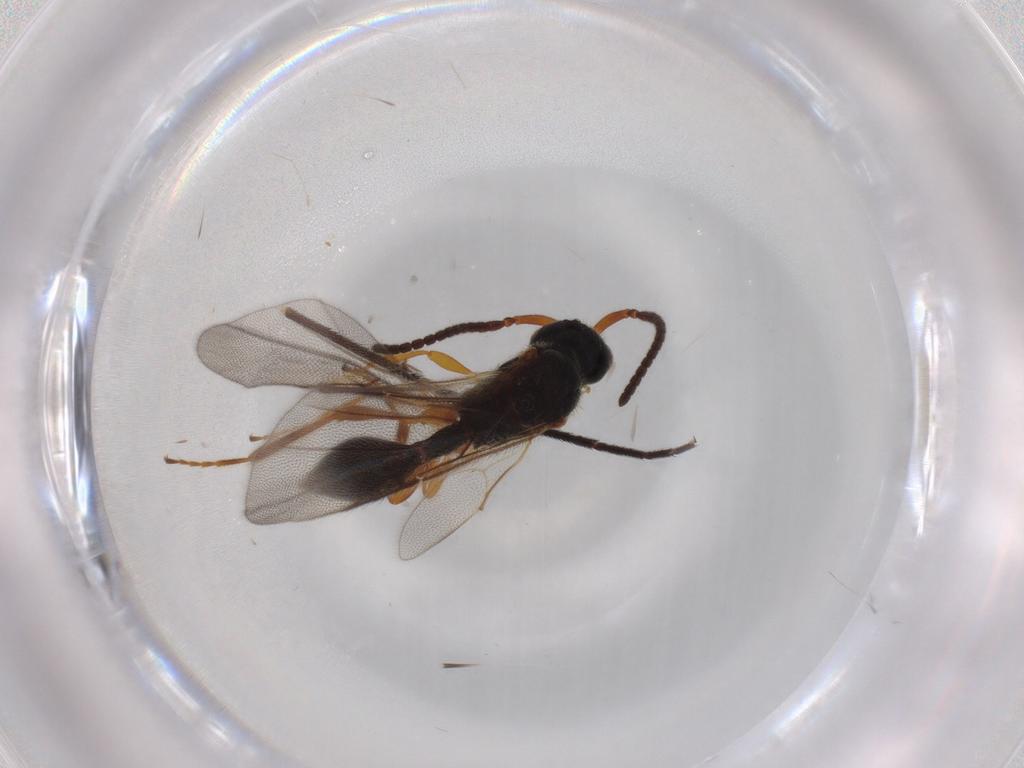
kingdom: Animalia
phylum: Arthropoda
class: Insecta
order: Hymenoptera
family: Ichneumonidae
